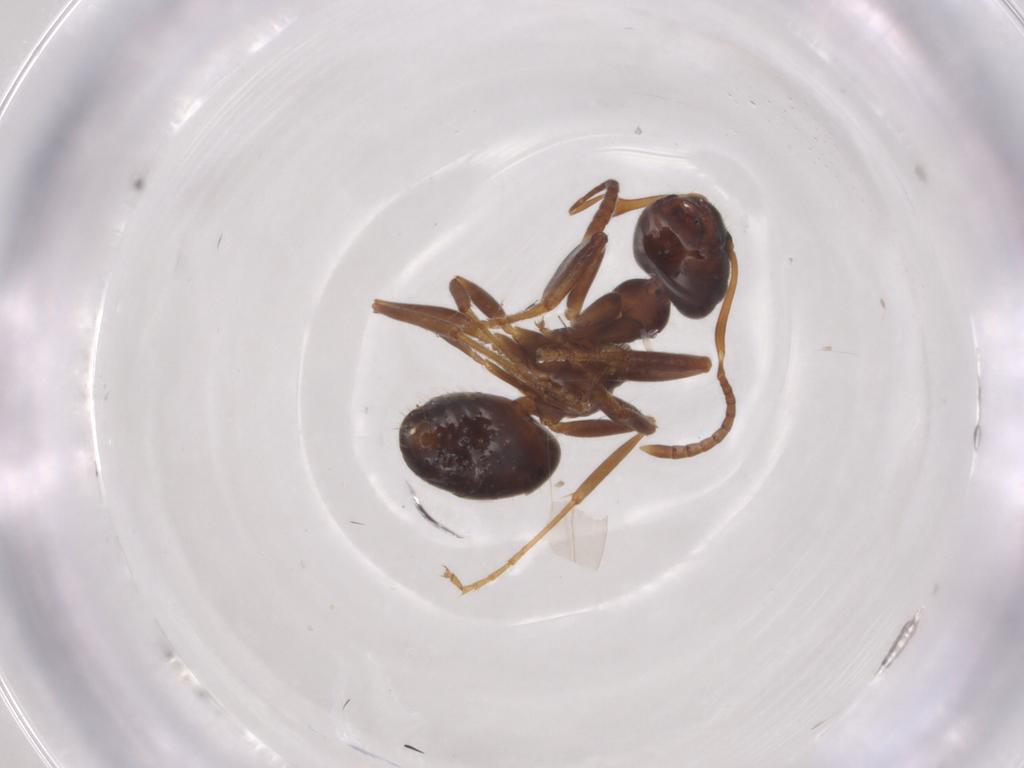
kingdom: Animalia
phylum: Arthropoda
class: Insecta
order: Hymenoptera
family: Formicidae
